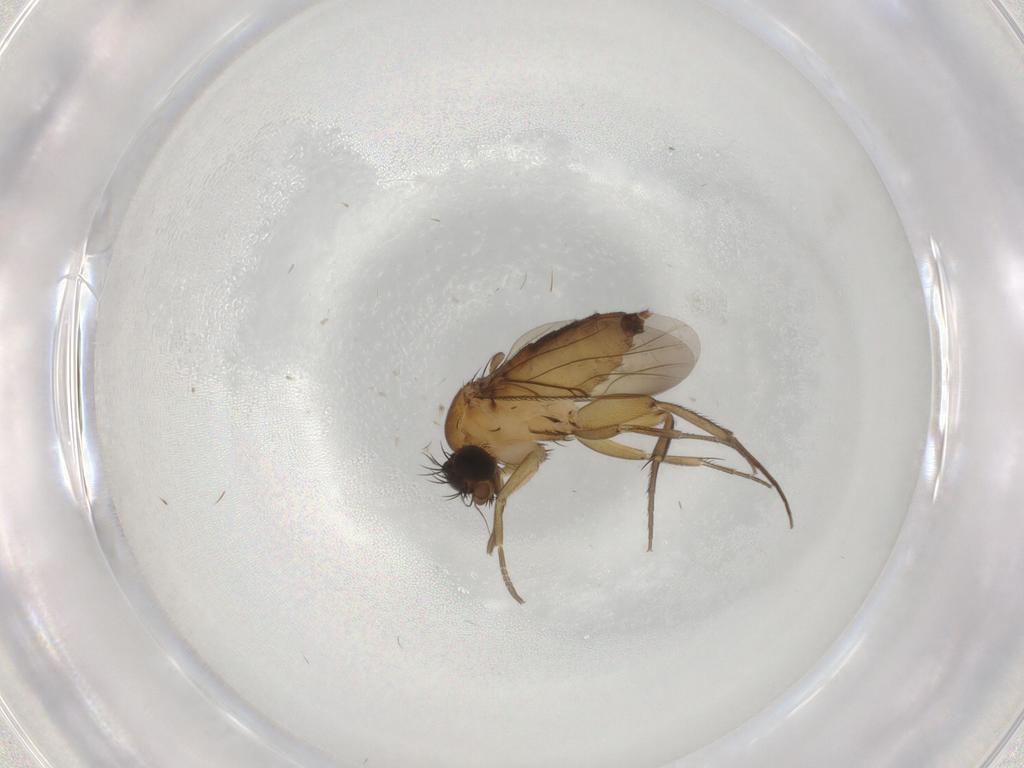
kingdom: Animalia
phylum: Arthropoda
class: Insecta
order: Diptera
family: Phoridae
